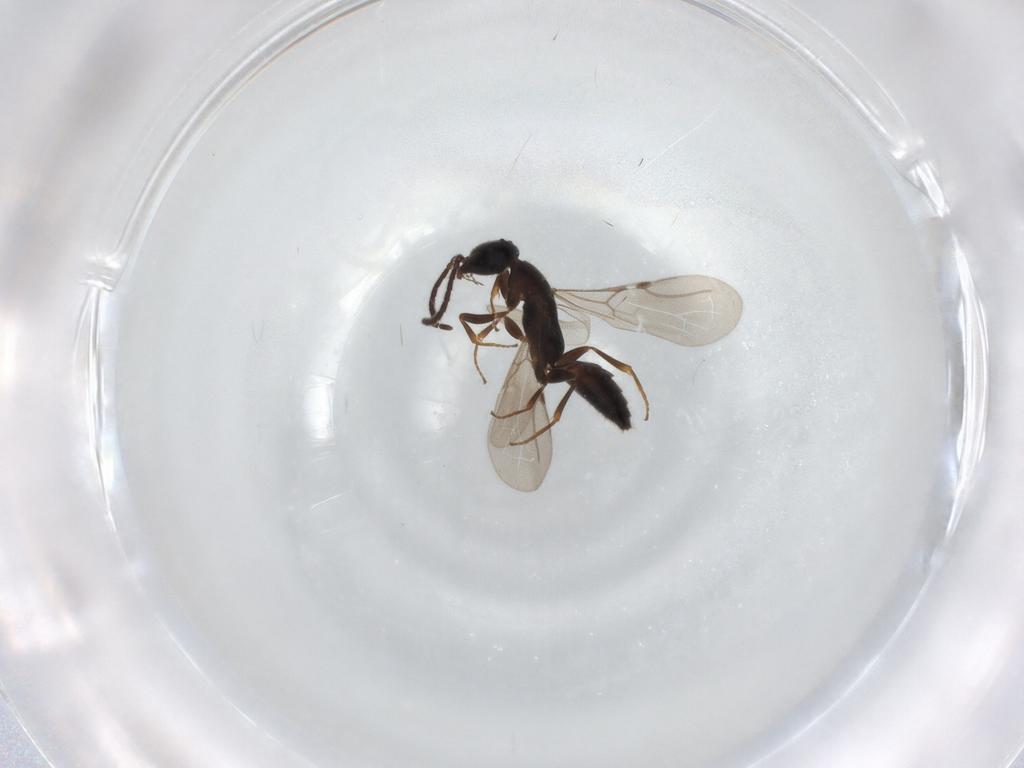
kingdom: Animalia
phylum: Arthropoda
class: Insecta
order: Hymenoptera
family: Bethylidae
